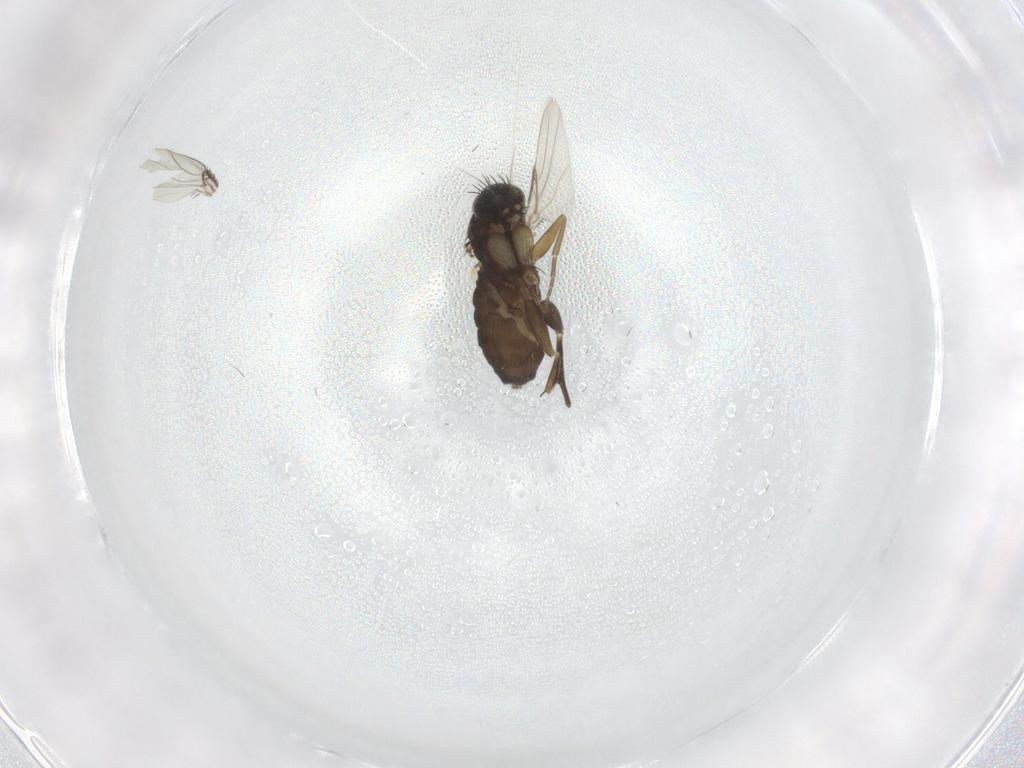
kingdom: Animalia
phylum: Arthropoda
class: Insecta
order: Diptera
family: Phoridae
